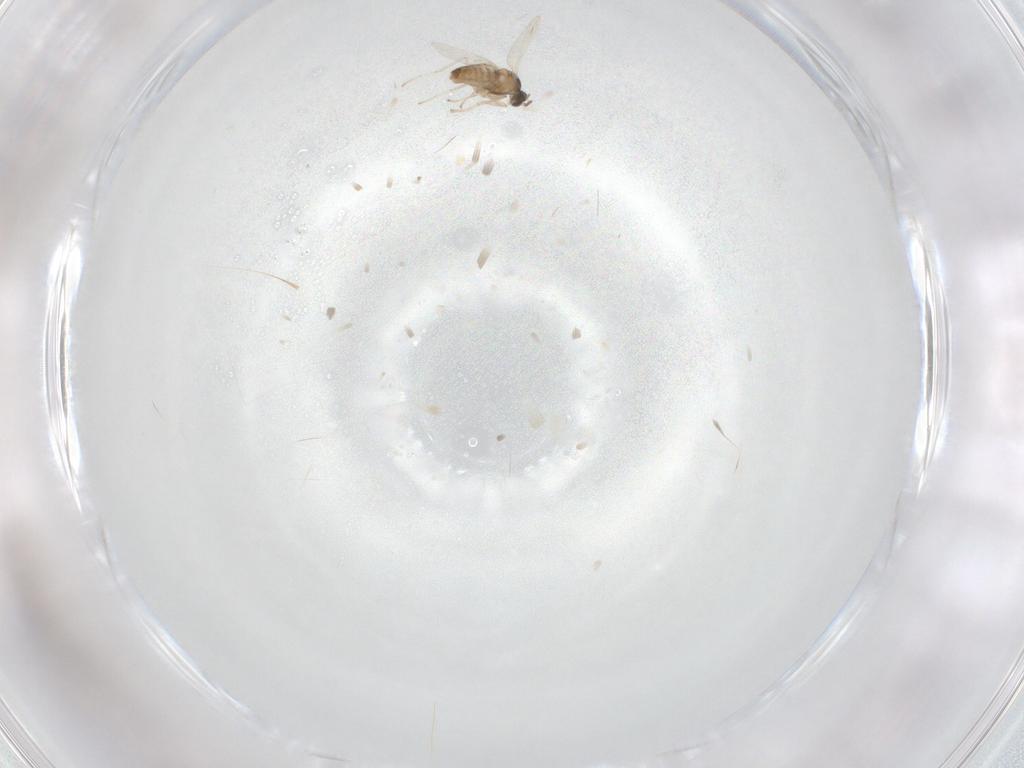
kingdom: Animalia
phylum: Arthropoda
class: Insecta
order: Diptera
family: Cecidomyiidae
